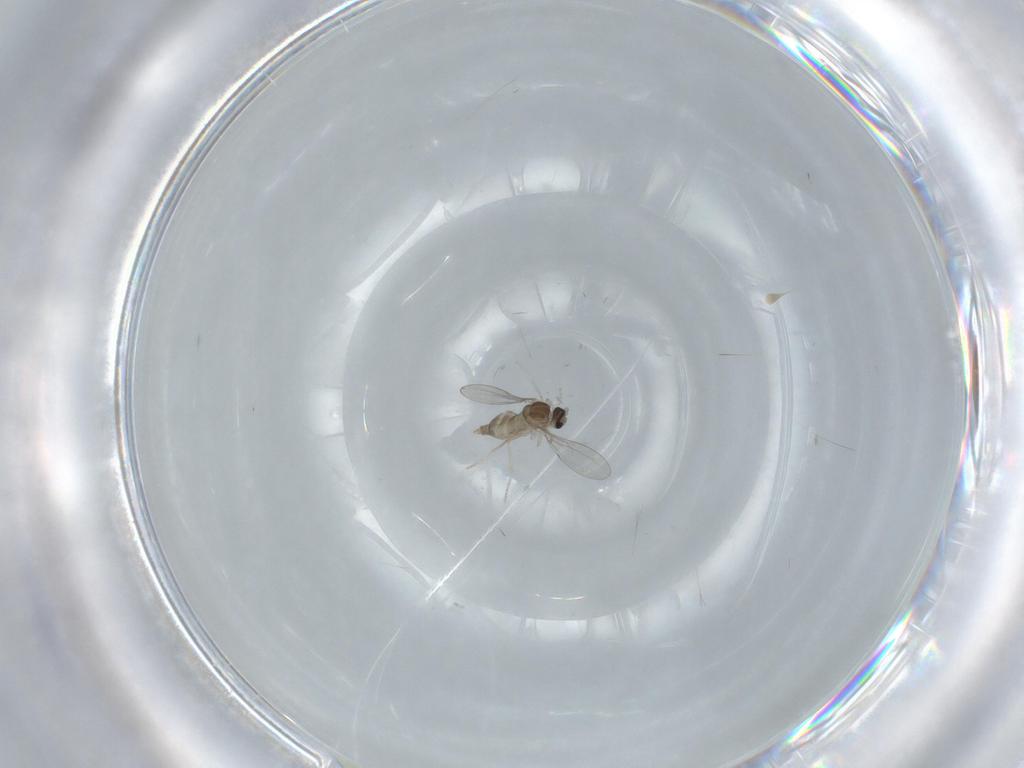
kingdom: Animalia
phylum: Arthropoda
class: Insecta
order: Diptera
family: Cecidomyiidae
